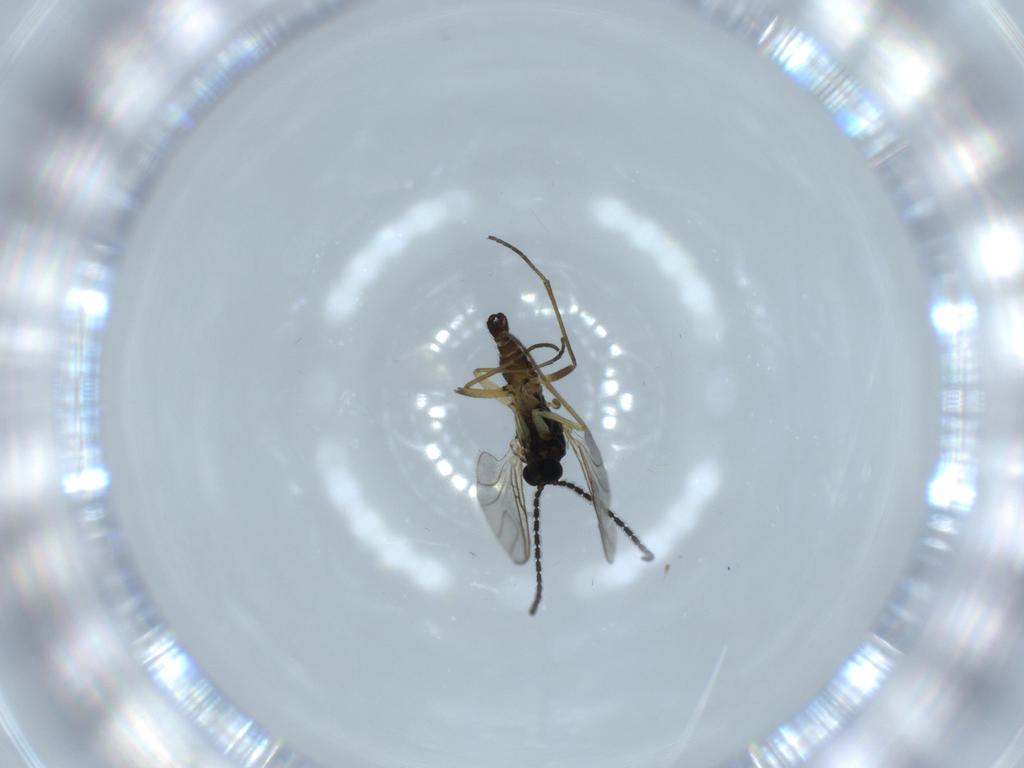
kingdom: Animalia
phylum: Arthropoda
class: Insecta
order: Diptera
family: Sciaridae
